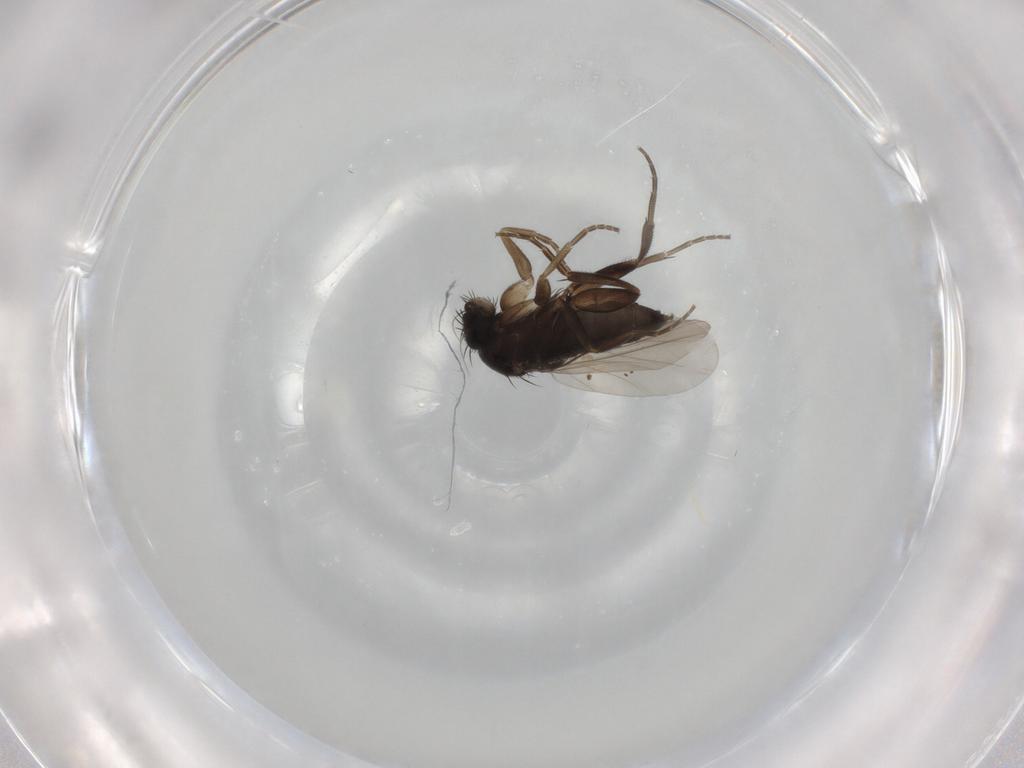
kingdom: Animalia
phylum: Arthropoda
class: Insecta
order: Diptera
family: Phoridae
